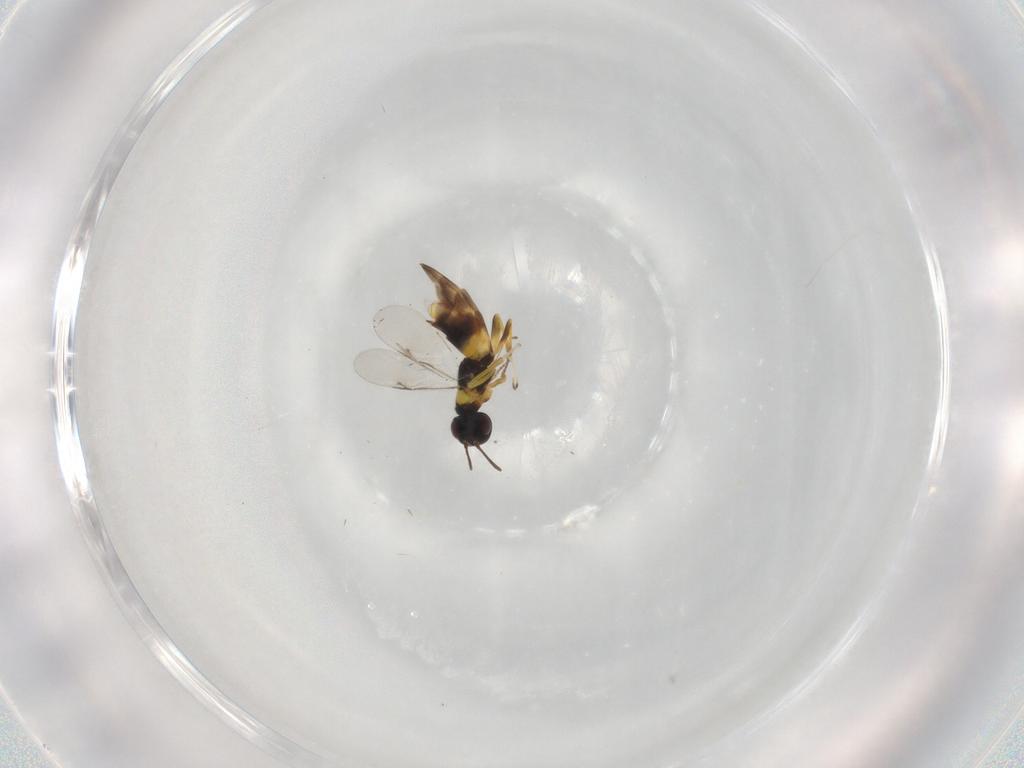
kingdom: Animalia
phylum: Arthropoda
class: Insecta
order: Hymenoptera
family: Encyrtidae
